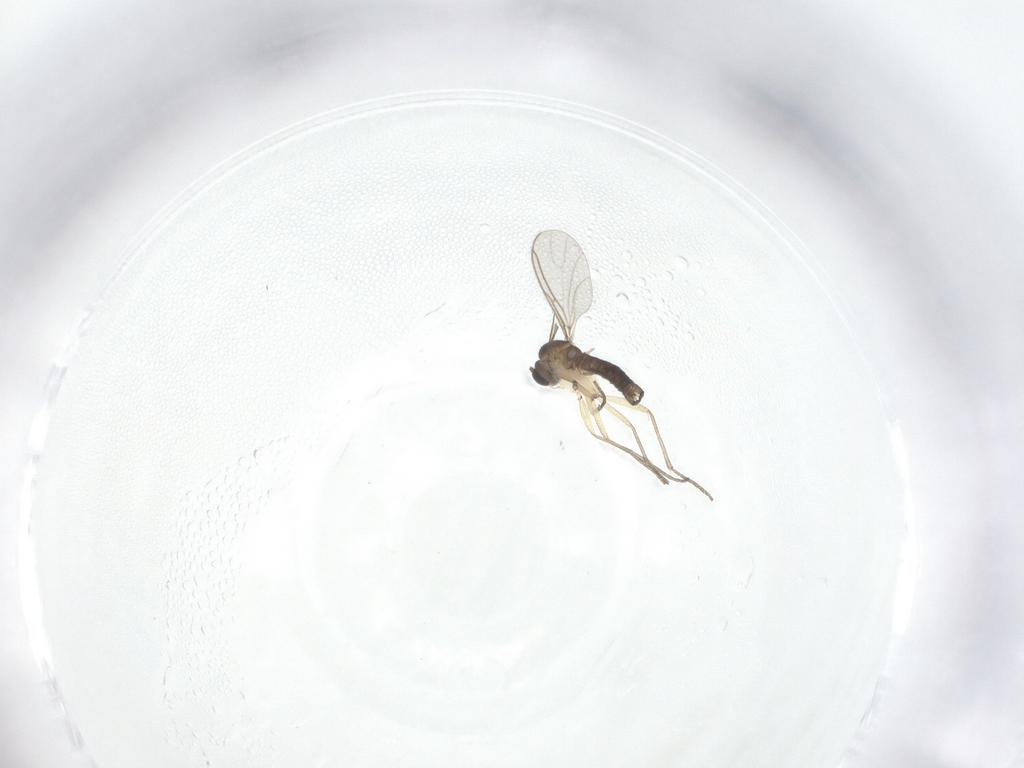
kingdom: Animalia
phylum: Arthropoda
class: Insecta
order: Diptera
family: Sciaridae
